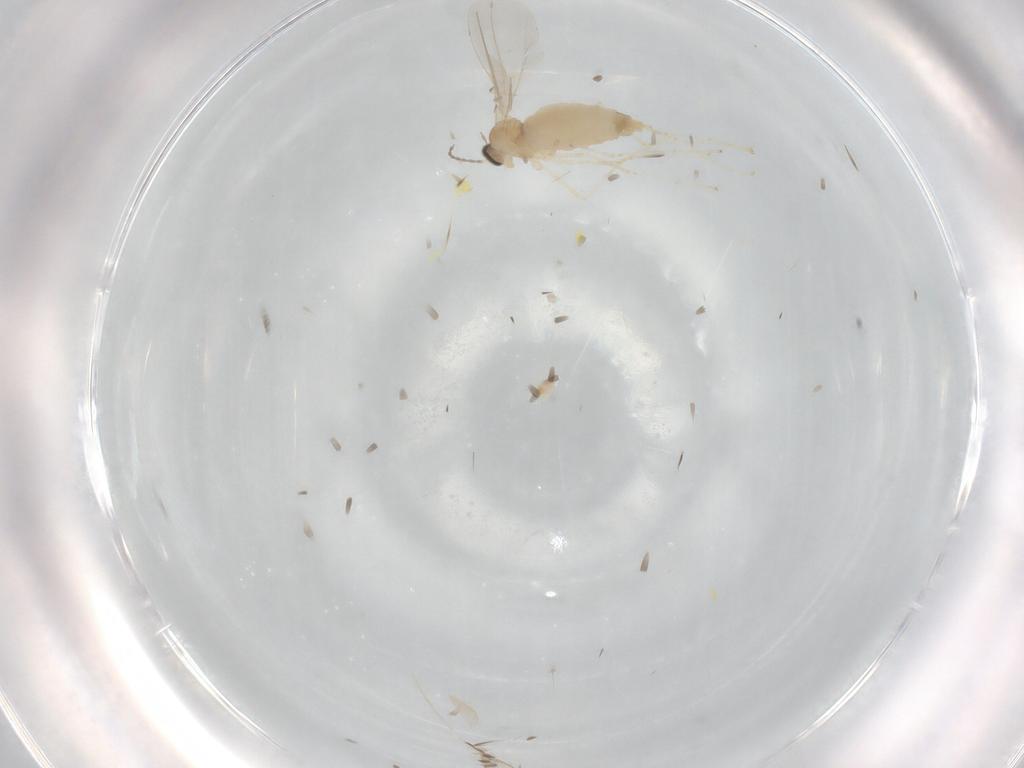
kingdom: Animalia
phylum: Arthropoda
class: Insecta
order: Diptera
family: Cecidomyiidae
